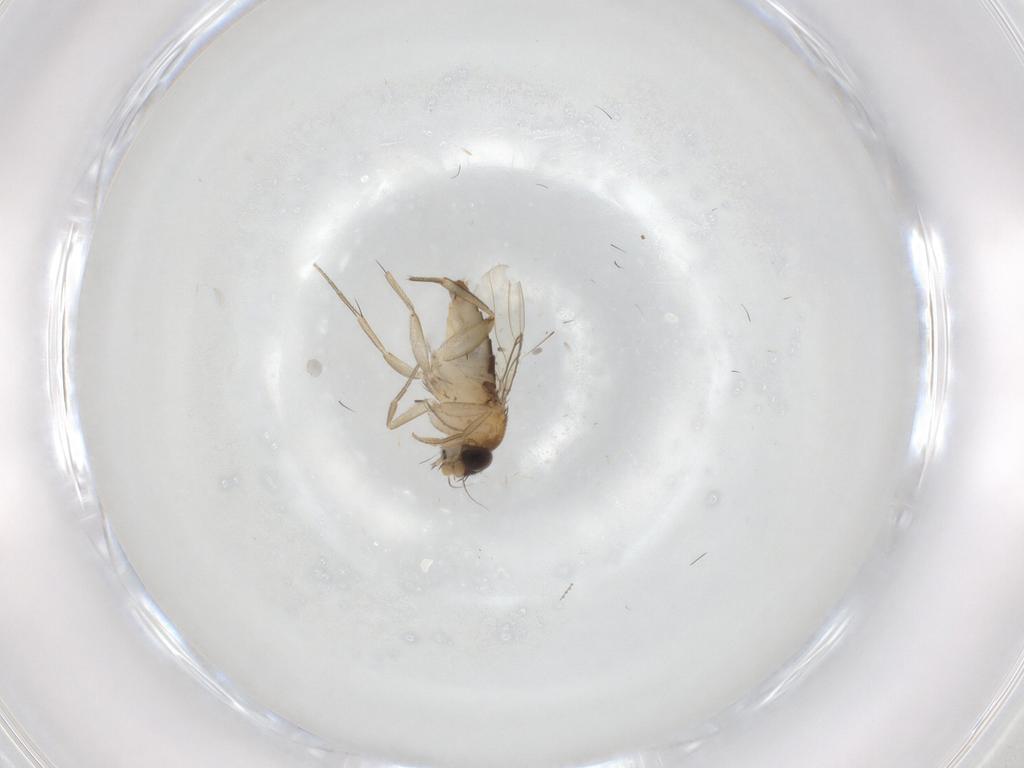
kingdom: Animalia
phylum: Arthropoda
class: Insecta
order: Diptera
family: Phoridae
